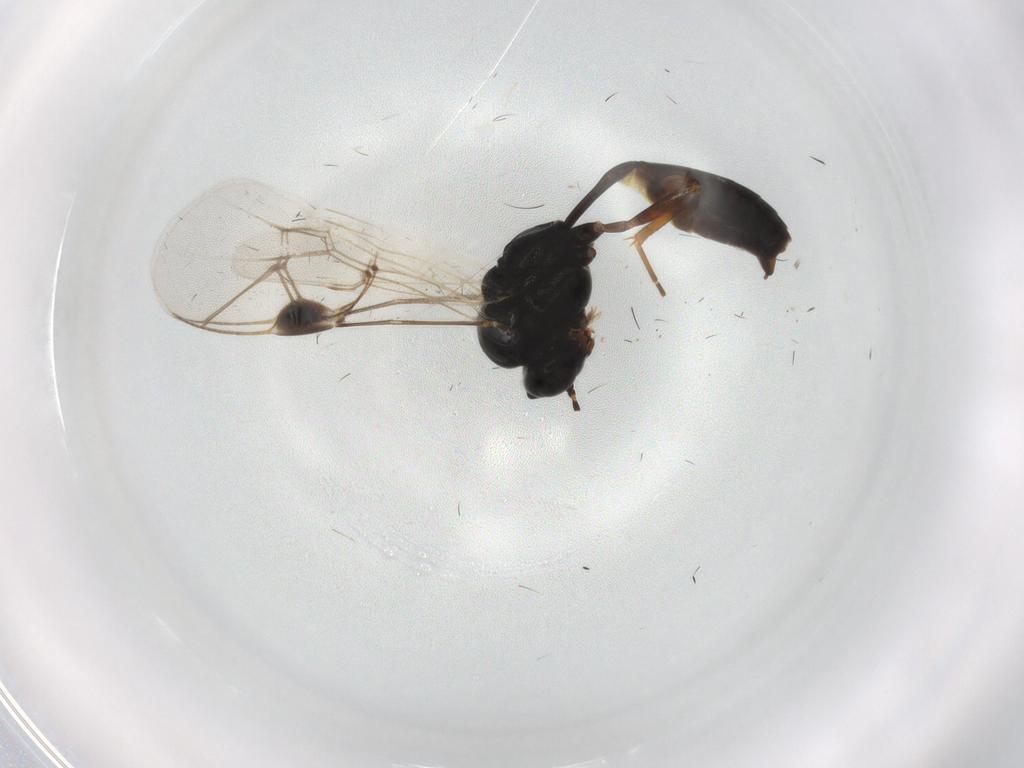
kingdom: Animalia
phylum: Arthropoda
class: Insecta
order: Hymenoptera
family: Ichneumonidae
